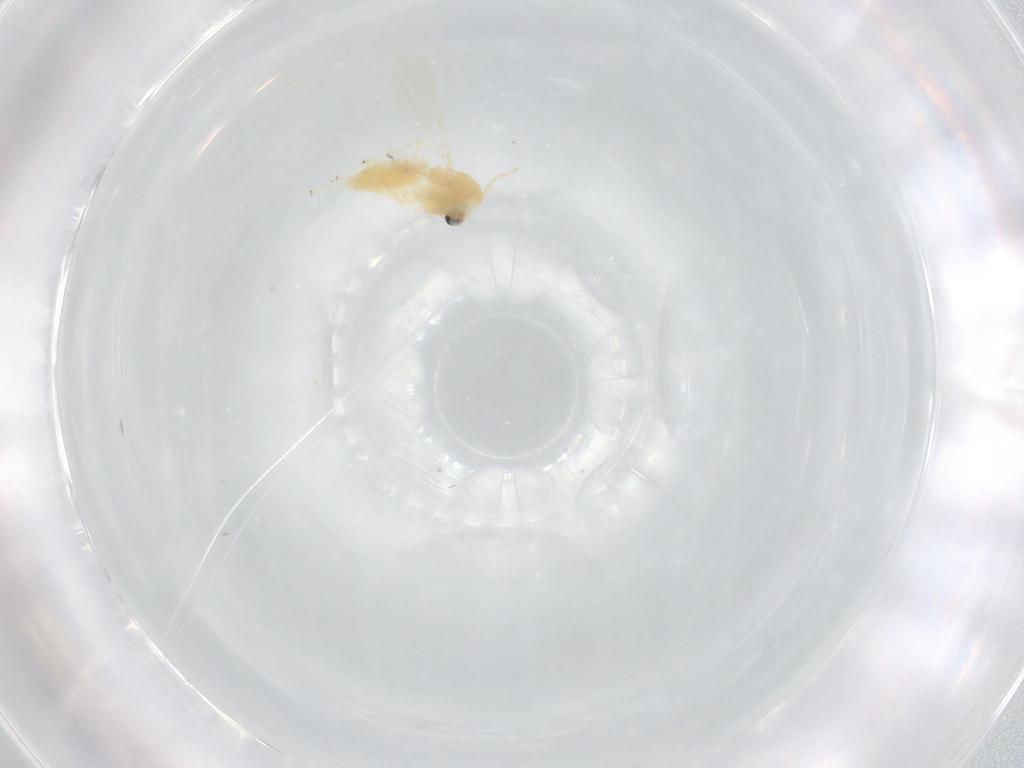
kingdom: Animalia
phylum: Arthropoda
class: Insecta
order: Diptera
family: Chironomidae
